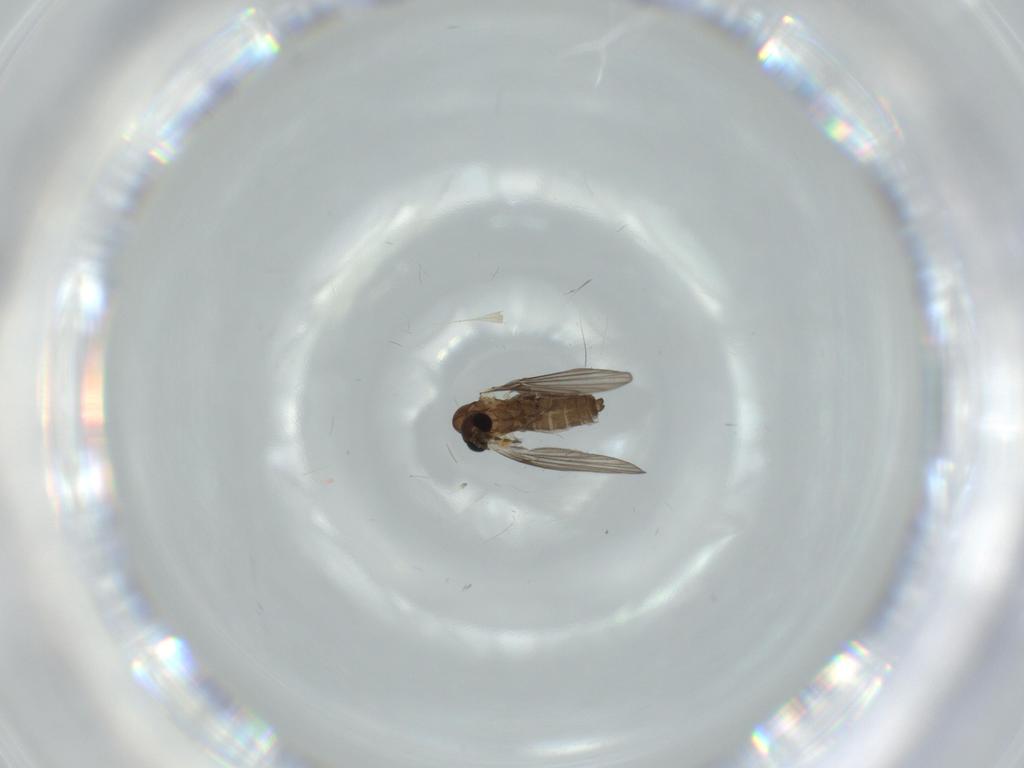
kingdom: Animalia
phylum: Arthropoda
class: Insecta
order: Diptera
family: Psychodidae
